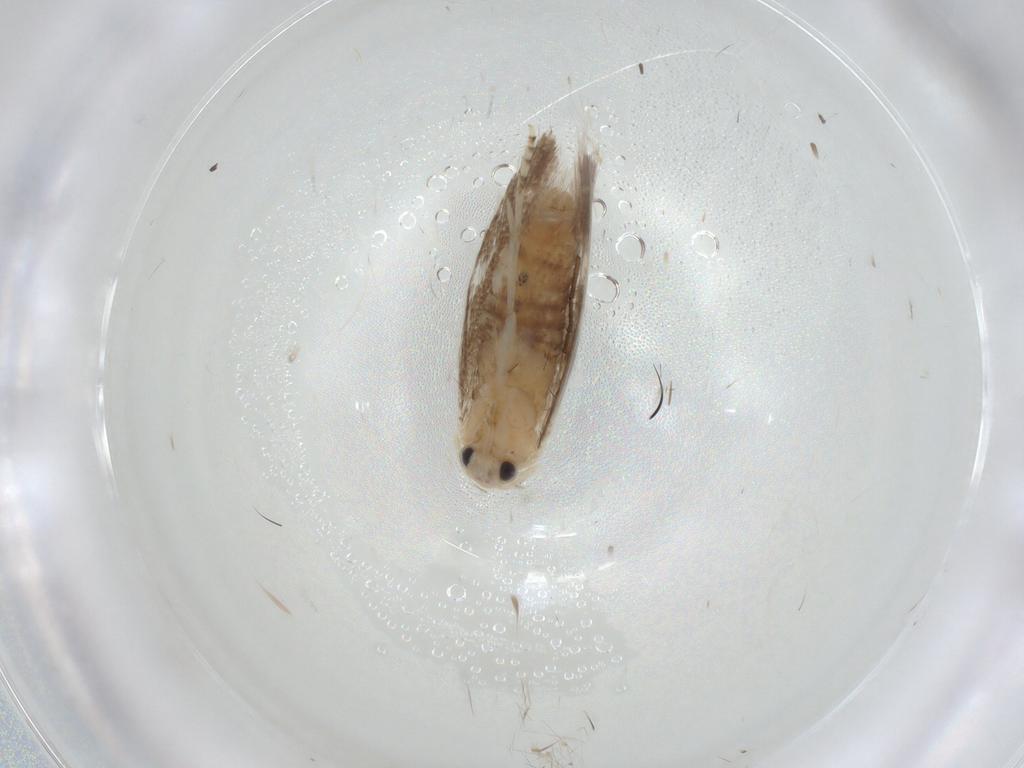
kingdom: Animalia
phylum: Arthropoda
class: Insecta
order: Lepidoptera
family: Bucculatricidae
